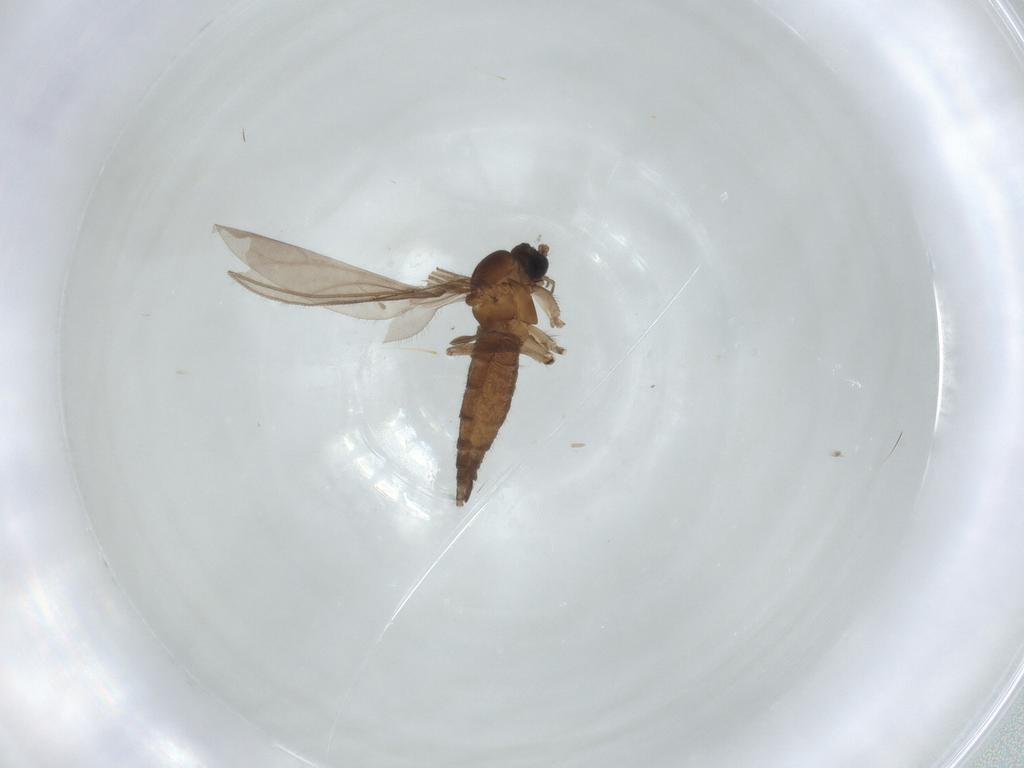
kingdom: Animalia
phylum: Arthropoda
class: Insecta
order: Diptera
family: Sciaridae
